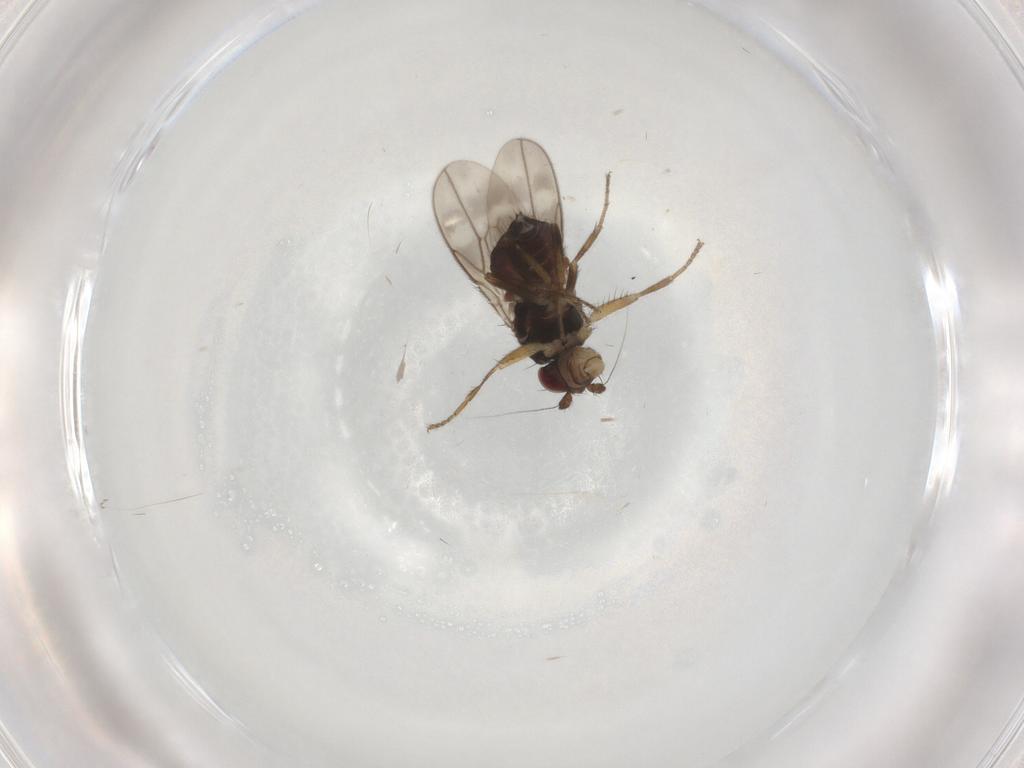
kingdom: Animalia
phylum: Arthropoda
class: Insecta
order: Diptera
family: Sphaeroceridae
